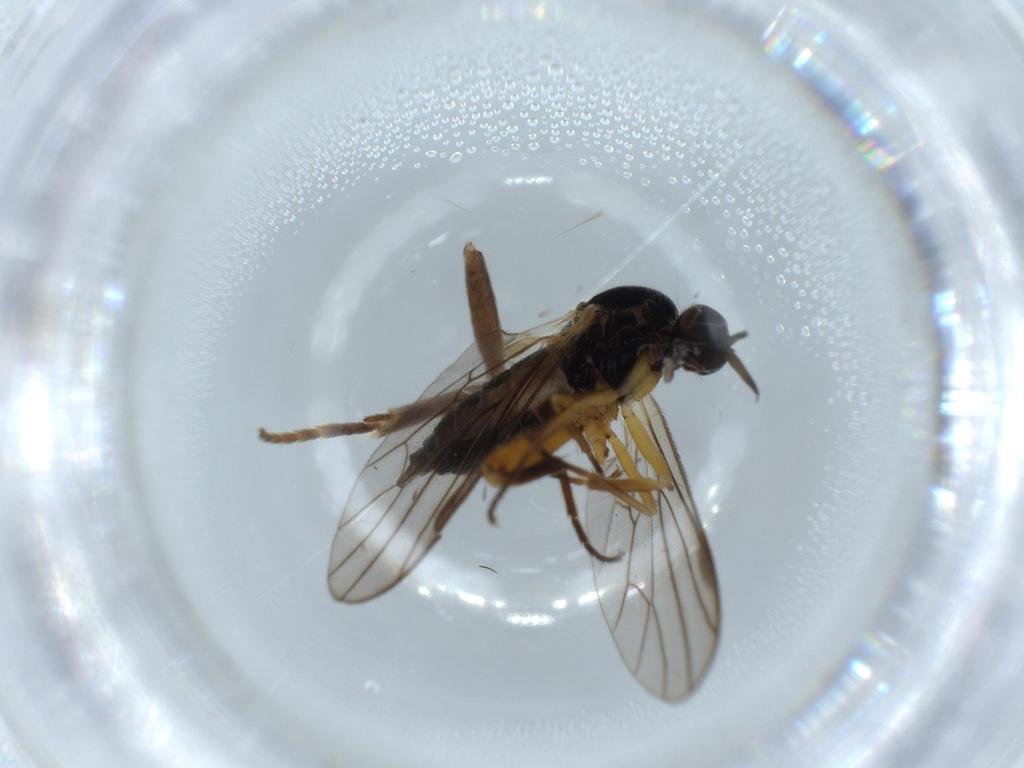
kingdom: Animalia
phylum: Arthropoda
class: Insecta
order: Diptera
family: Hybotidae
